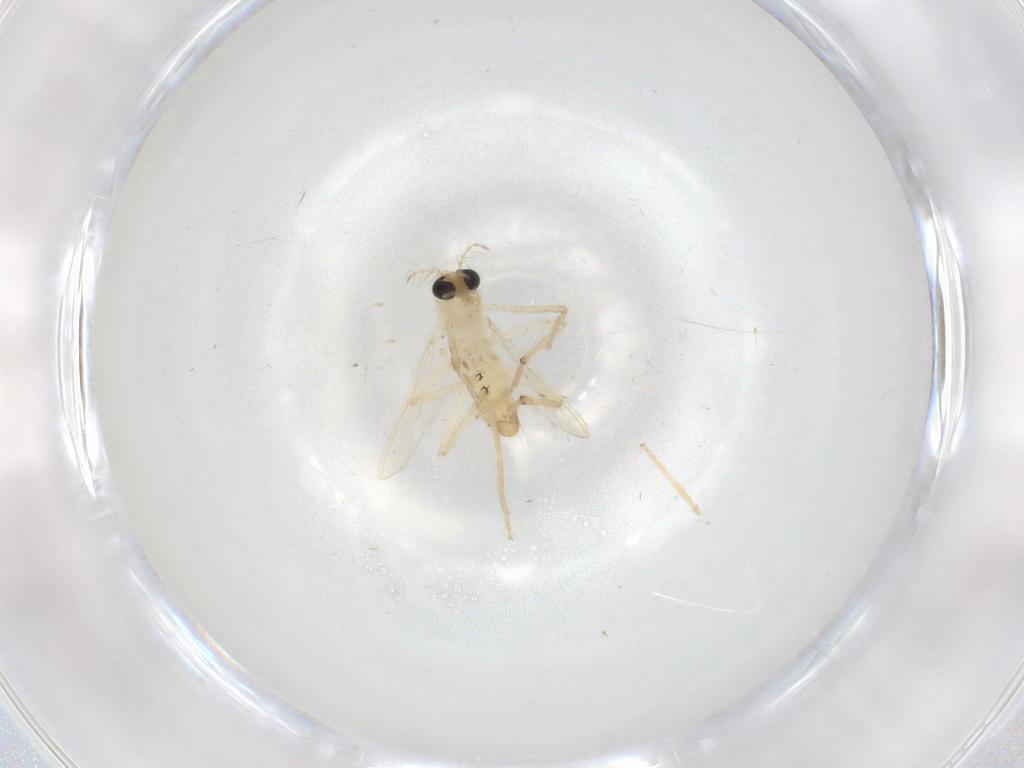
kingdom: Animalia
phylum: Arthropoda
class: Insecta
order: Diptera
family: Chironomidae
